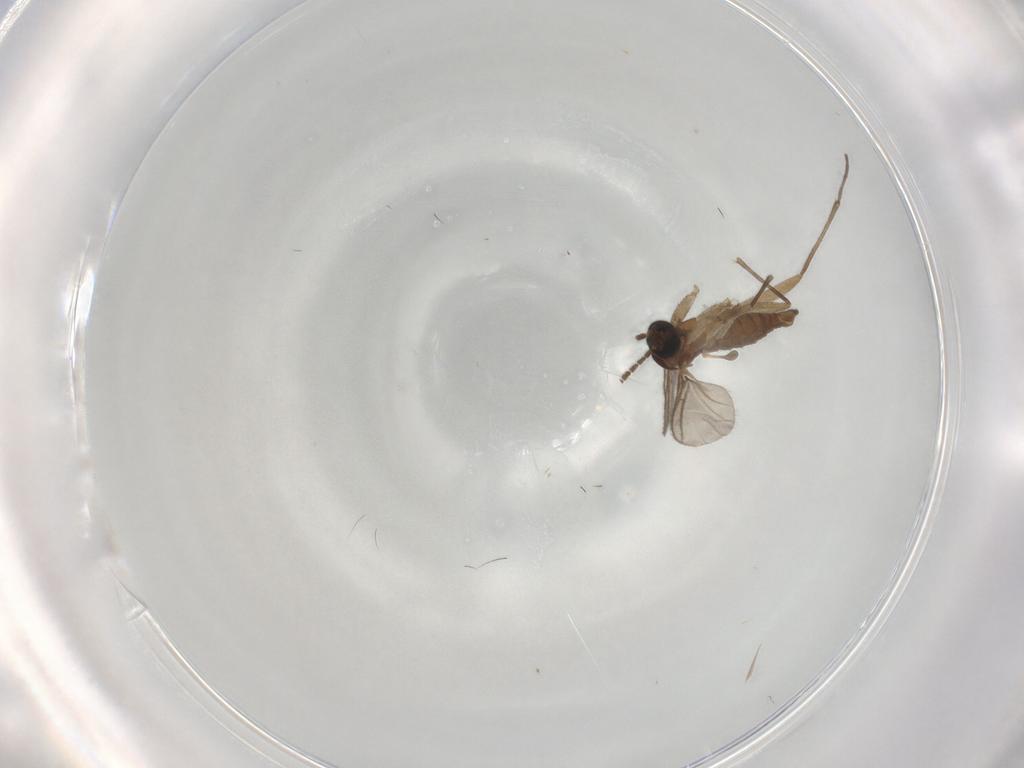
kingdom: Animalia
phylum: Arthropoda
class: Insecta
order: Diptera
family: Sciaridae
